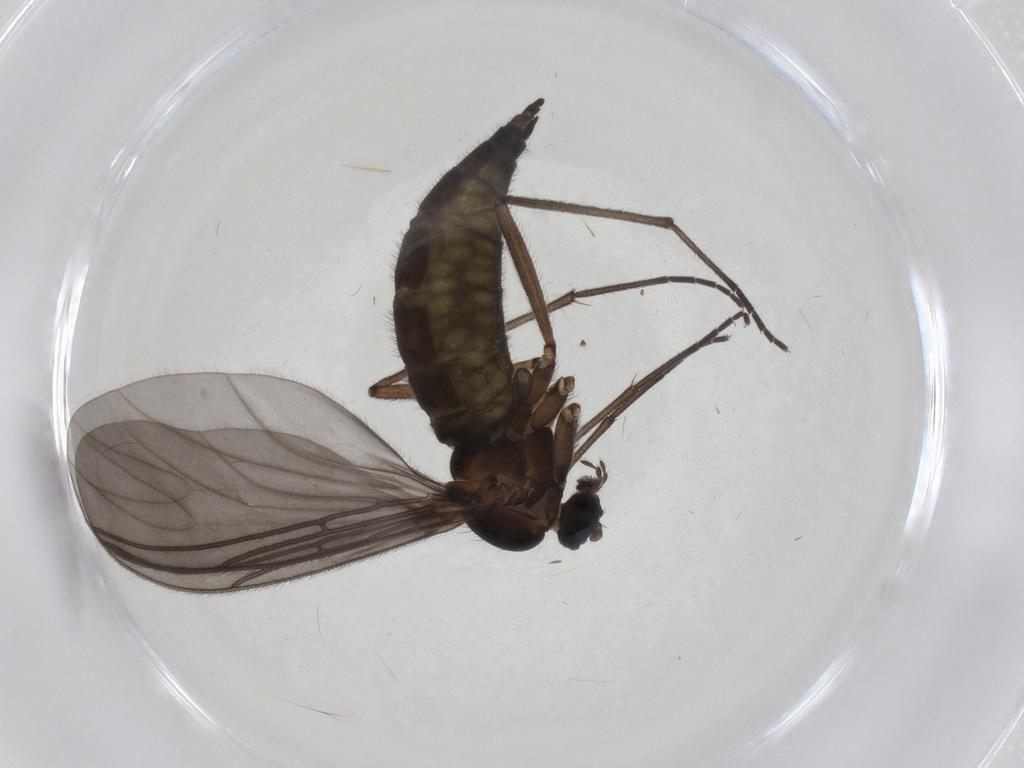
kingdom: Animalia
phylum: Arthropoda
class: Insecta
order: Diptera
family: Sciaridae
